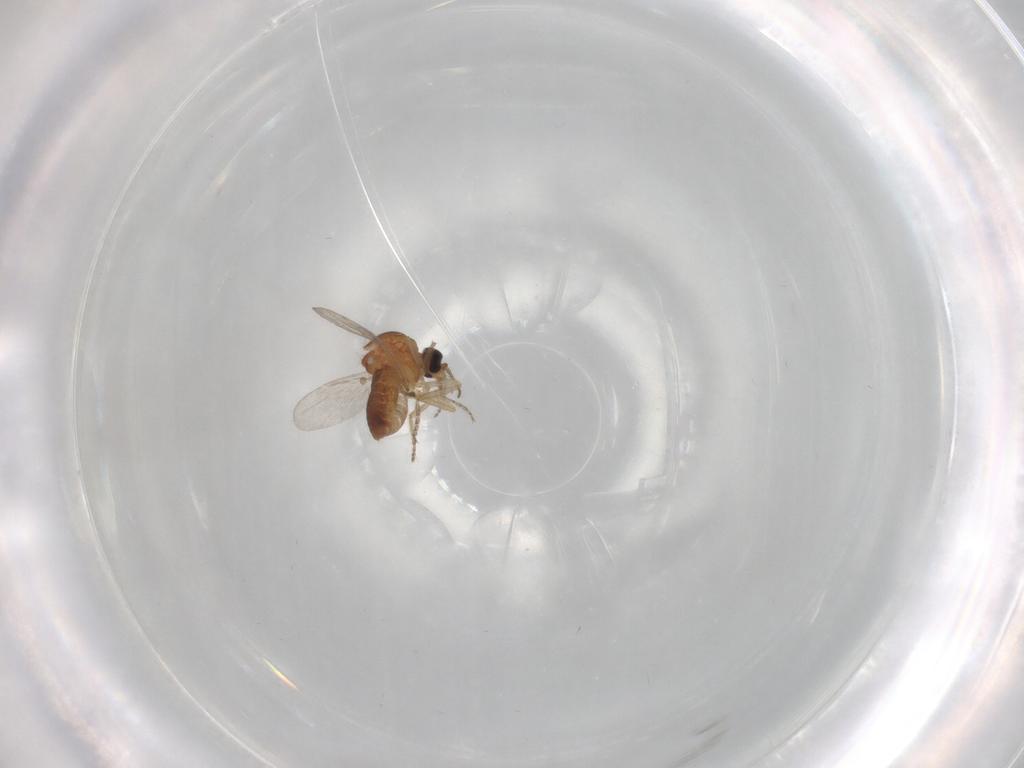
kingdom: Animalia
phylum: Arthropoda
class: Insecta
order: Diptera
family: Ceratopogonidae
